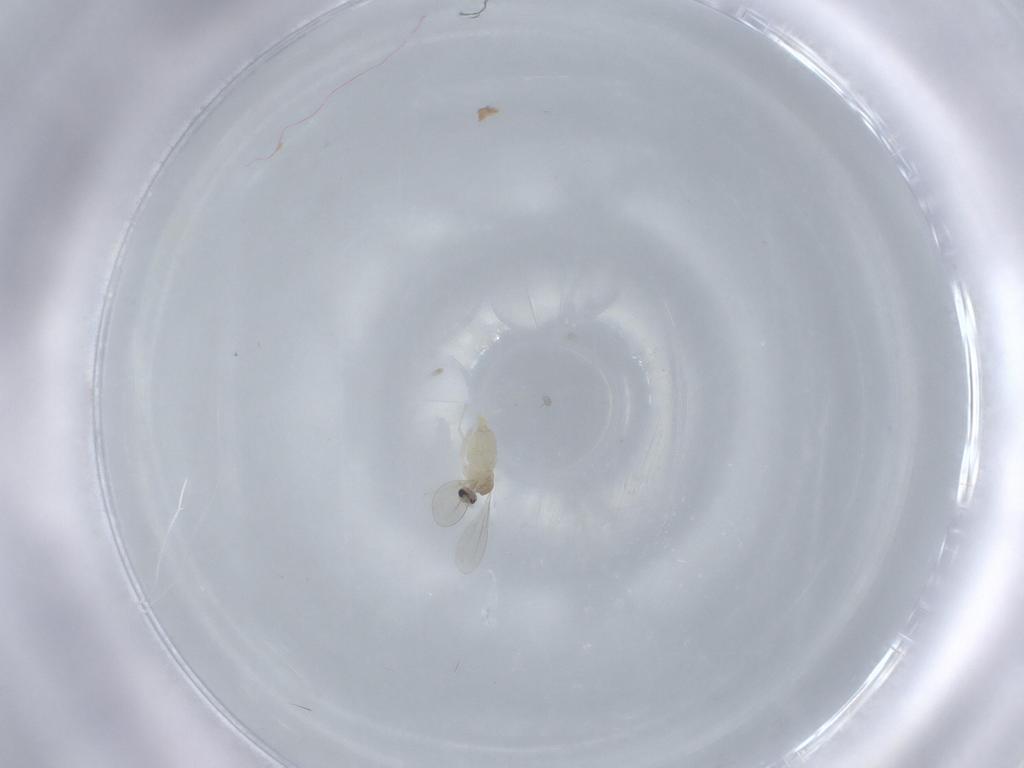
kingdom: Animalia
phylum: Arthropoda
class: Insecta
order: Diptera
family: Cecidomyiidae
